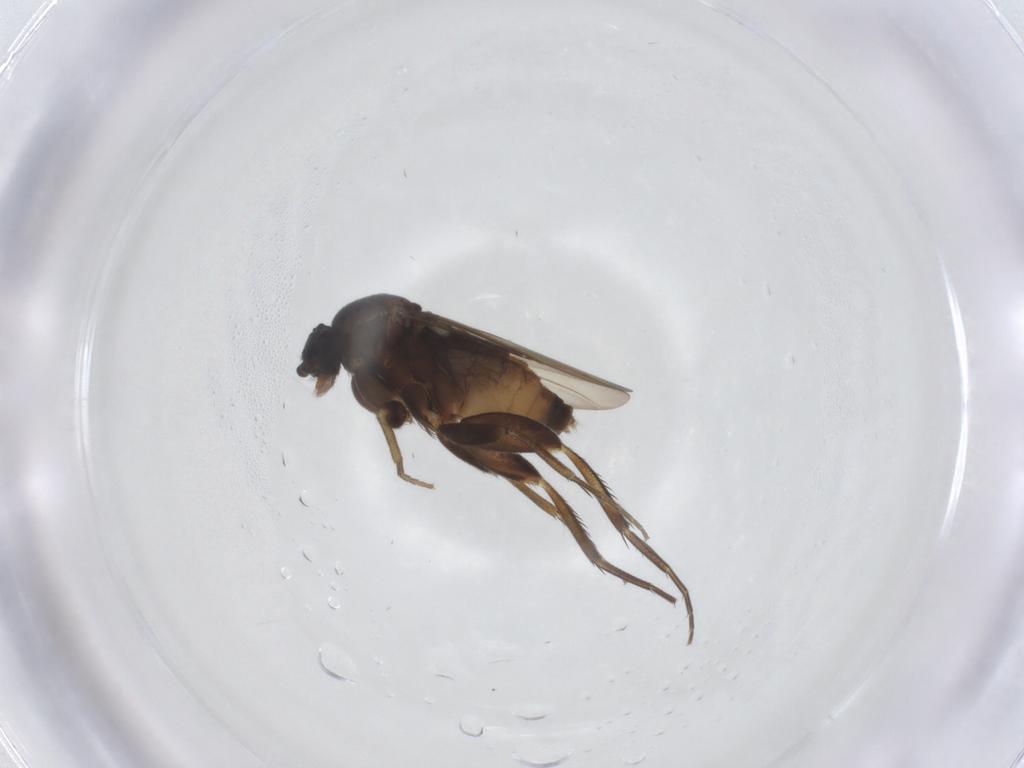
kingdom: Animalia
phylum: Arthropoda
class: Insecta
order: Diptera
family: Phoridae
